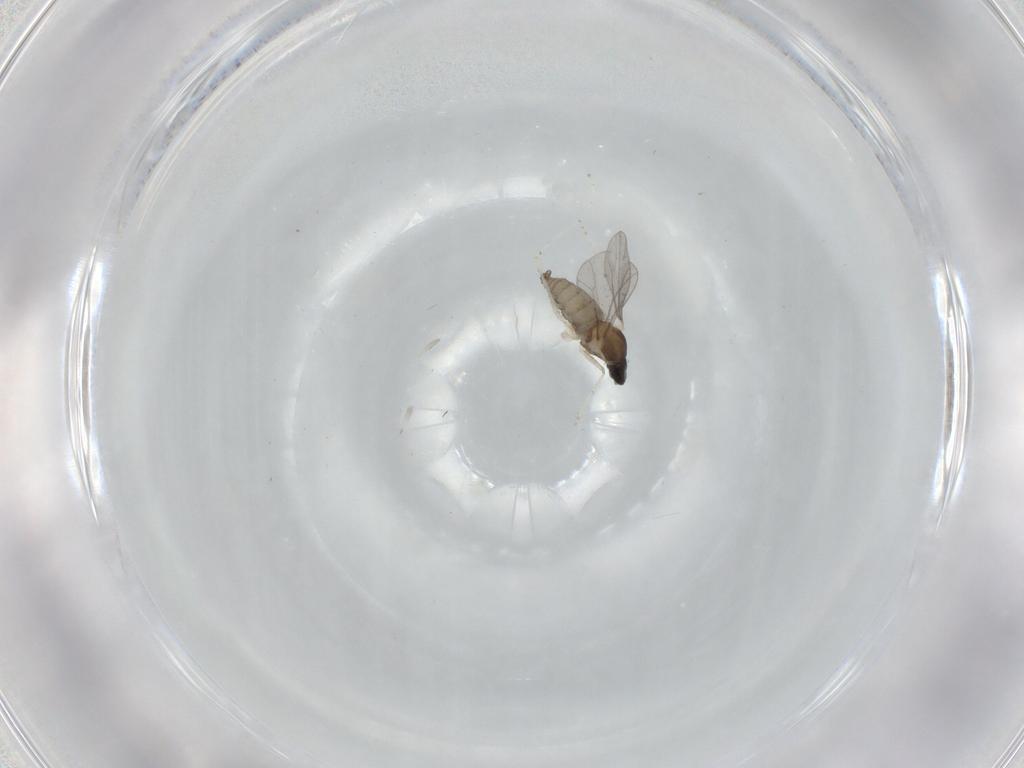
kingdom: Animalia
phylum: Arthropoda
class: Insecta
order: Diptera
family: Cecidomyiidae
